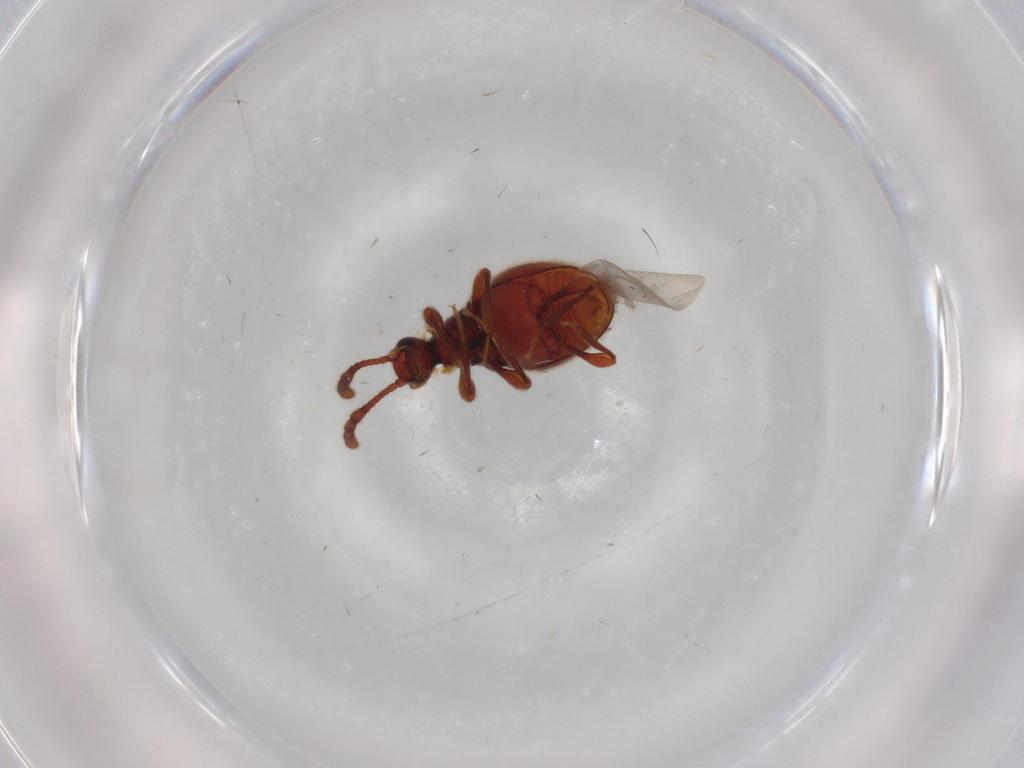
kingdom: Animalia
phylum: Arthropoda
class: Insecta
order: Coleoptera
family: Staphylinidae
